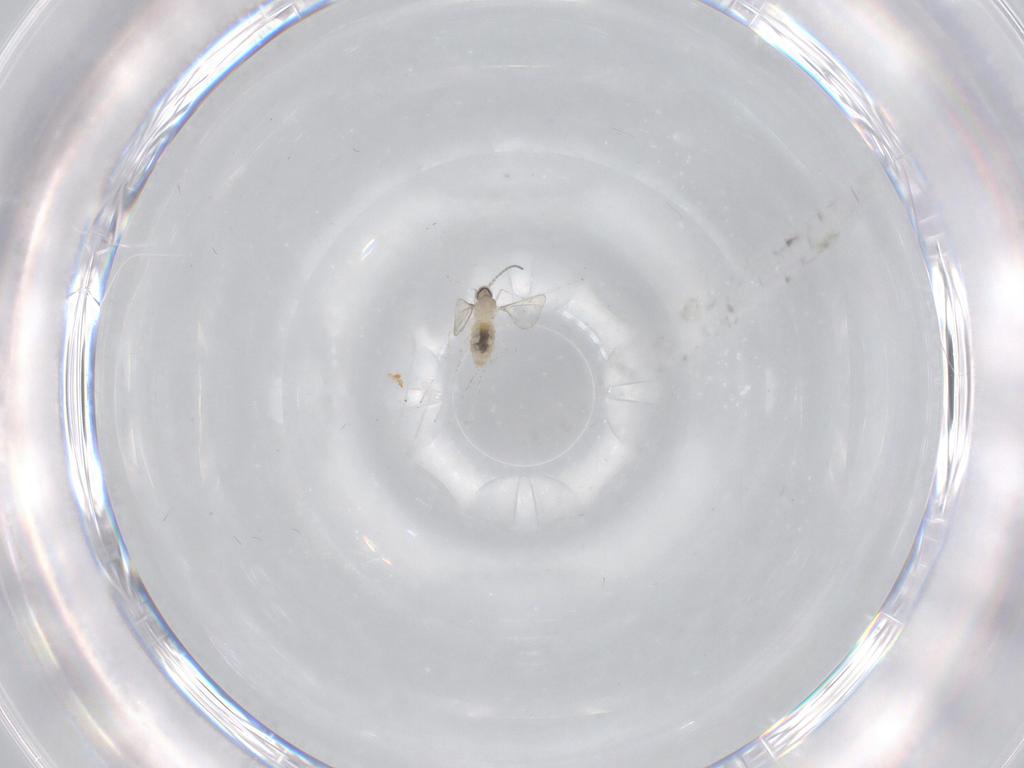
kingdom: Animalia
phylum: Arthropoda
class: Insecta
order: Diptera
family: Cecidomyiidae
